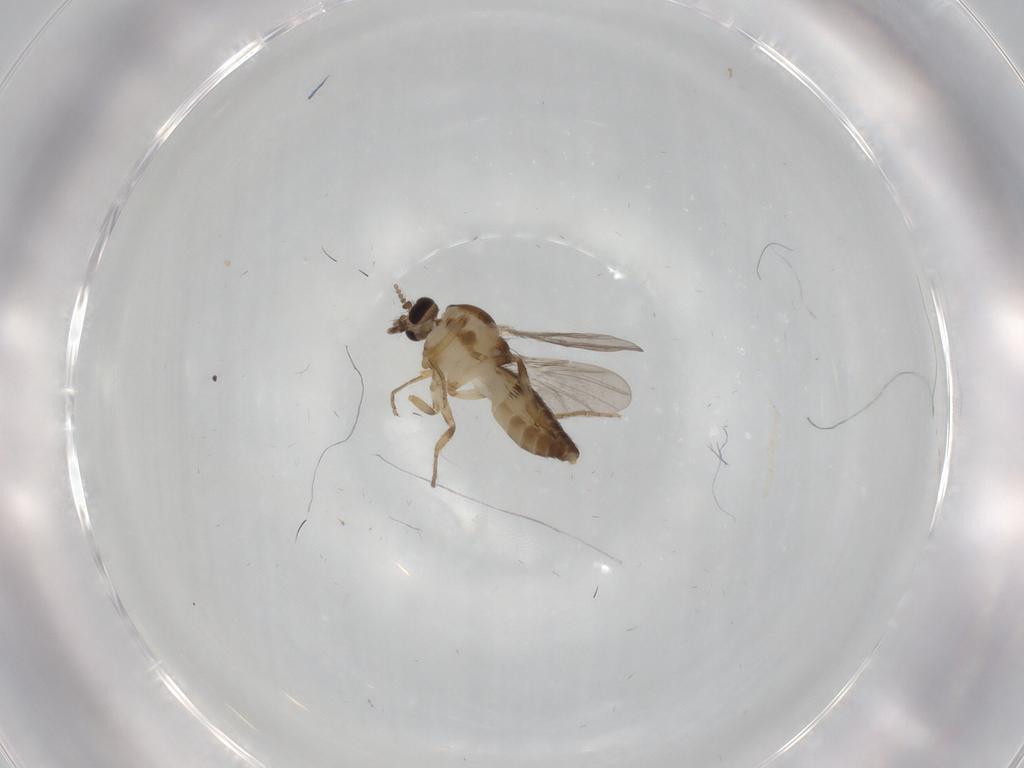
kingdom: Animalia
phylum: Arthropoda
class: Insecta
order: Diptera
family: Ceratopogonidae
